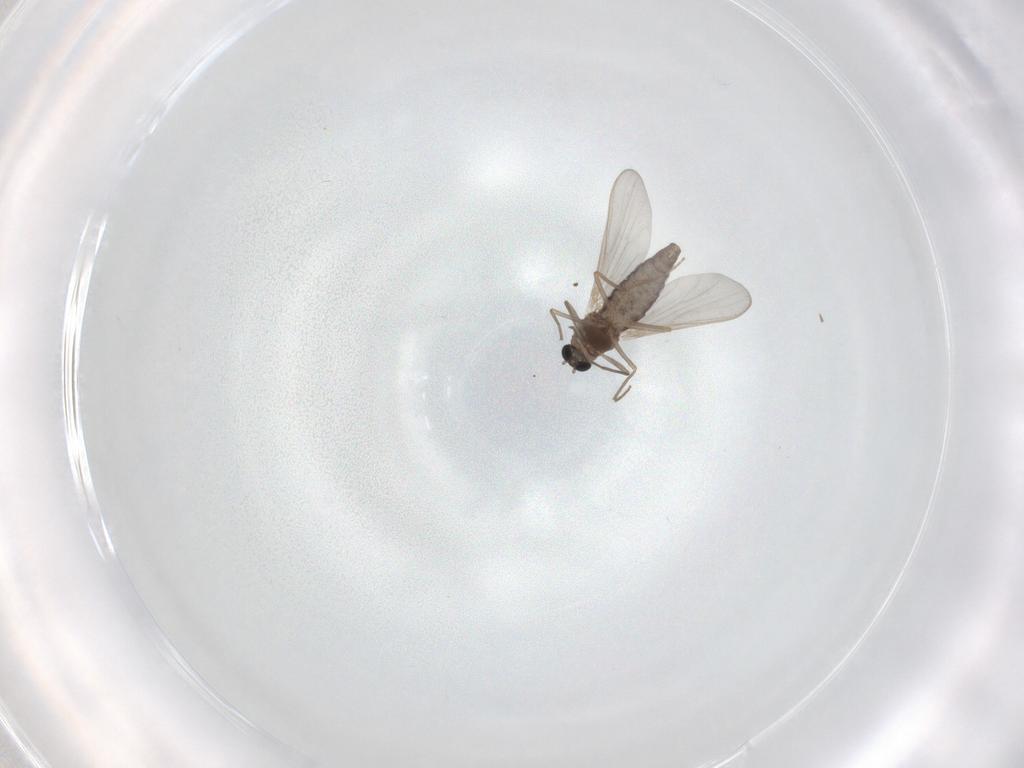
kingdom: Animalia
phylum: Arthropoda
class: Insecta
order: Diptera
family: Chironomidae
